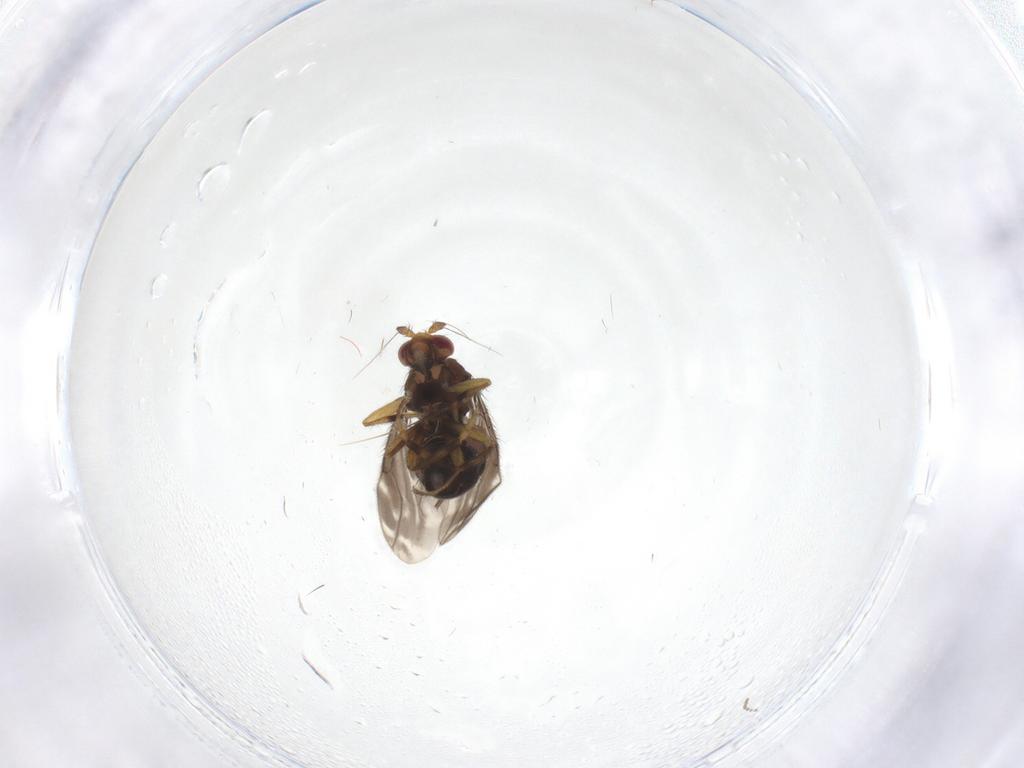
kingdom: Animalia
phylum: Arthropoda
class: Insecta
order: Diptera
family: Sphaeroceridae
